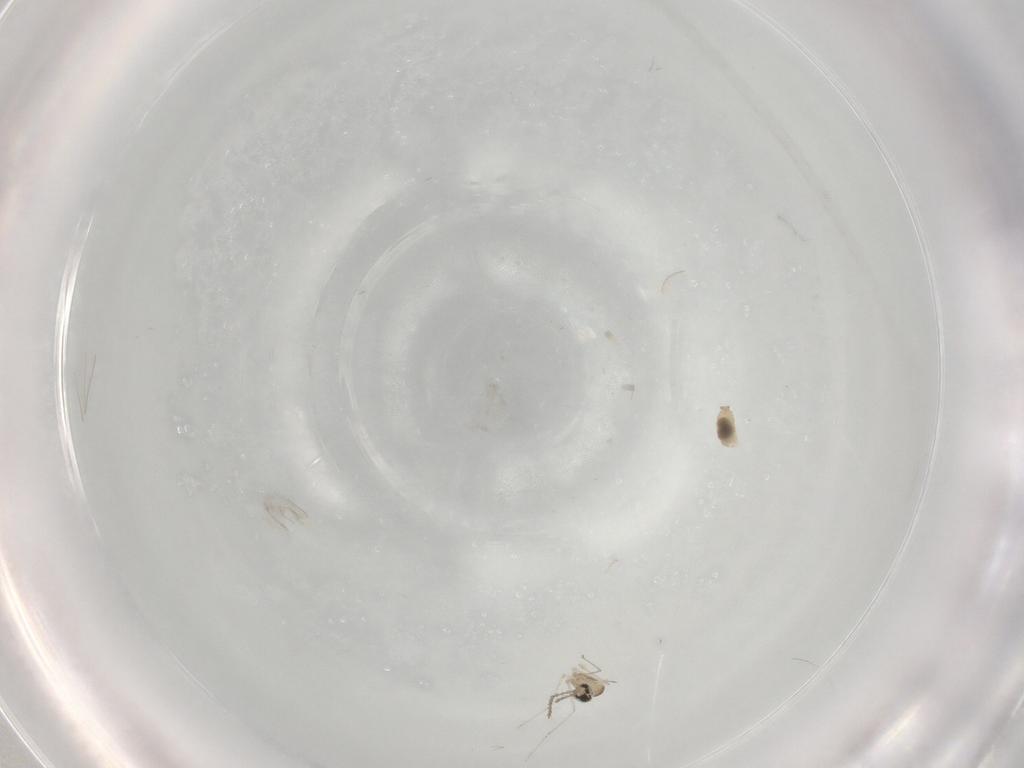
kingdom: Animalia
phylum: Arthropoda
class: Insecta
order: Diptera
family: Cecidomyiidae
